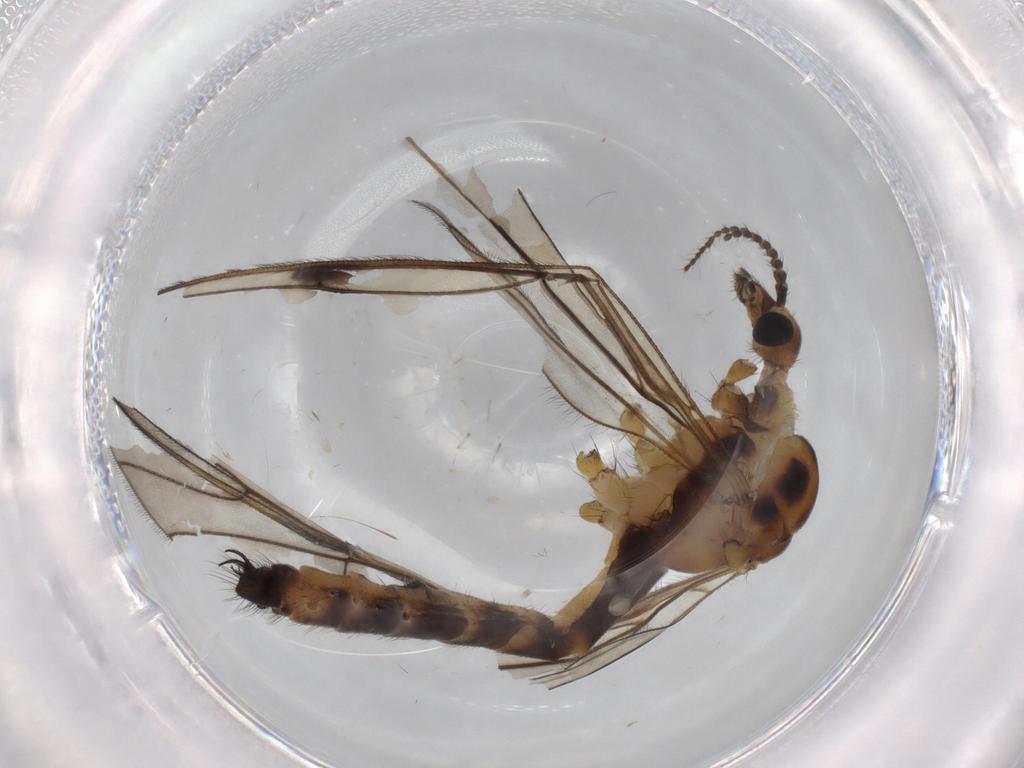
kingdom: Animalia
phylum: Arthropoda
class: Insecta
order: Diptera
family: Limoniidae
